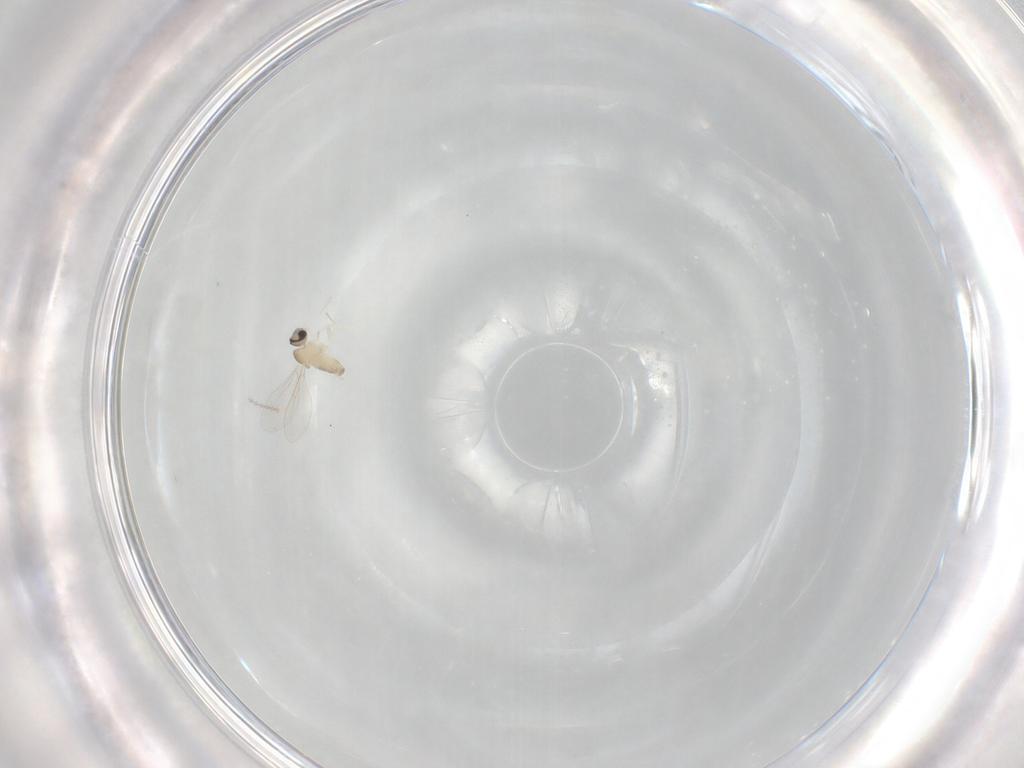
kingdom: Animalia
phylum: Arthropoda
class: Insecta
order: Diptera
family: Cecidomyiidae
